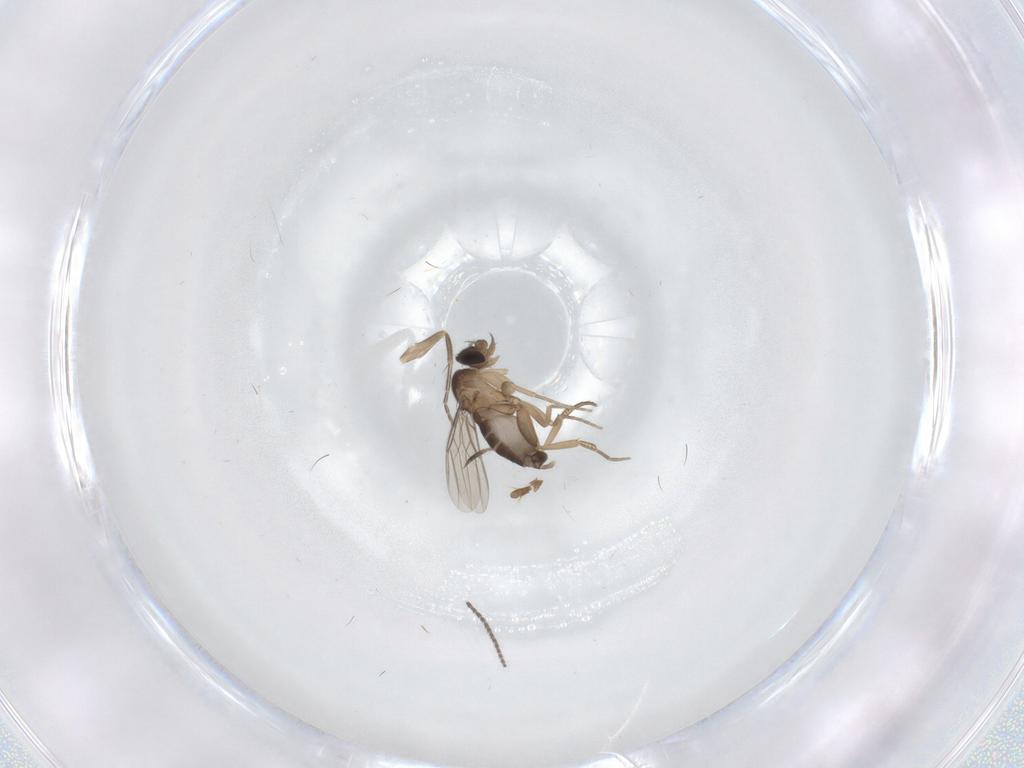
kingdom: Animalia
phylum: Arthropoda
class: Insecta
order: Diptera
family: Phoridae
